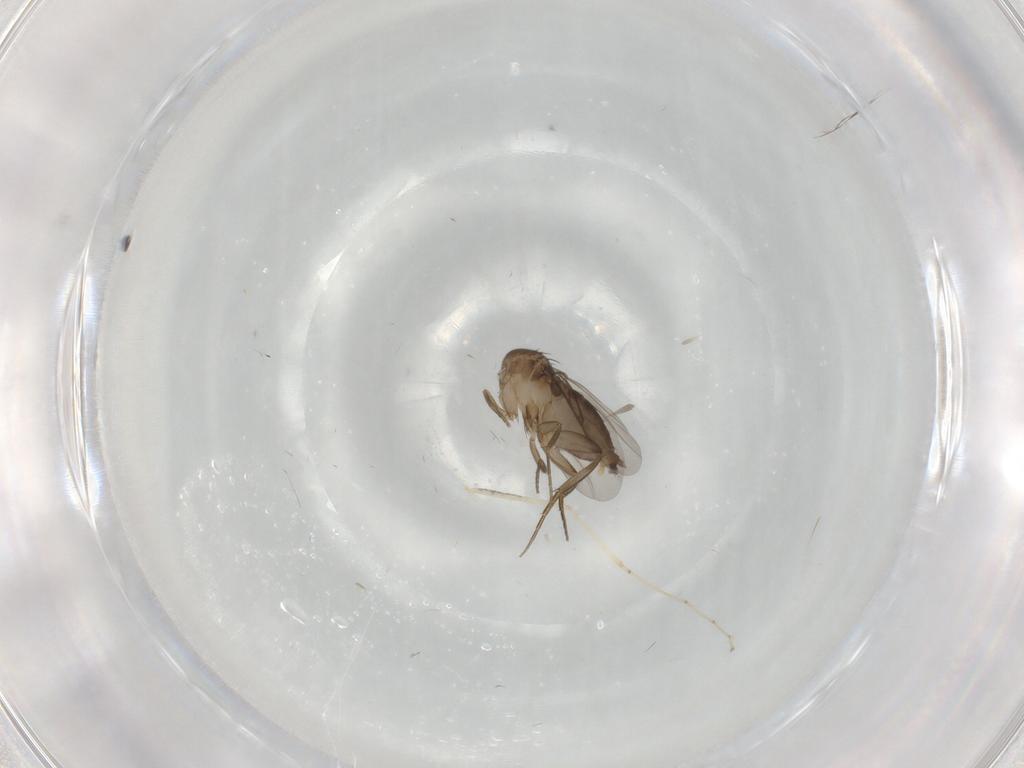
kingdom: Animalia
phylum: Arthropoda
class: Insecta
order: Diptera
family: Phoridae
